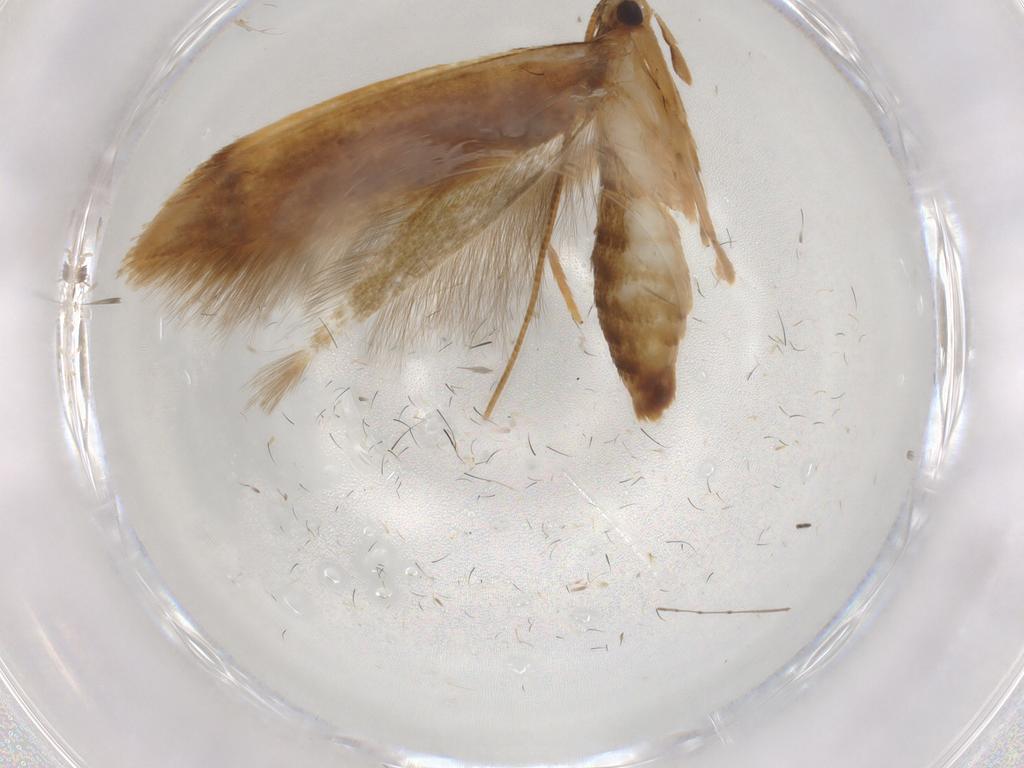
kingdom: Animalia
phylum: Arthropoda
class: Insecta
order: Lepidoptera
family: Tineidae
